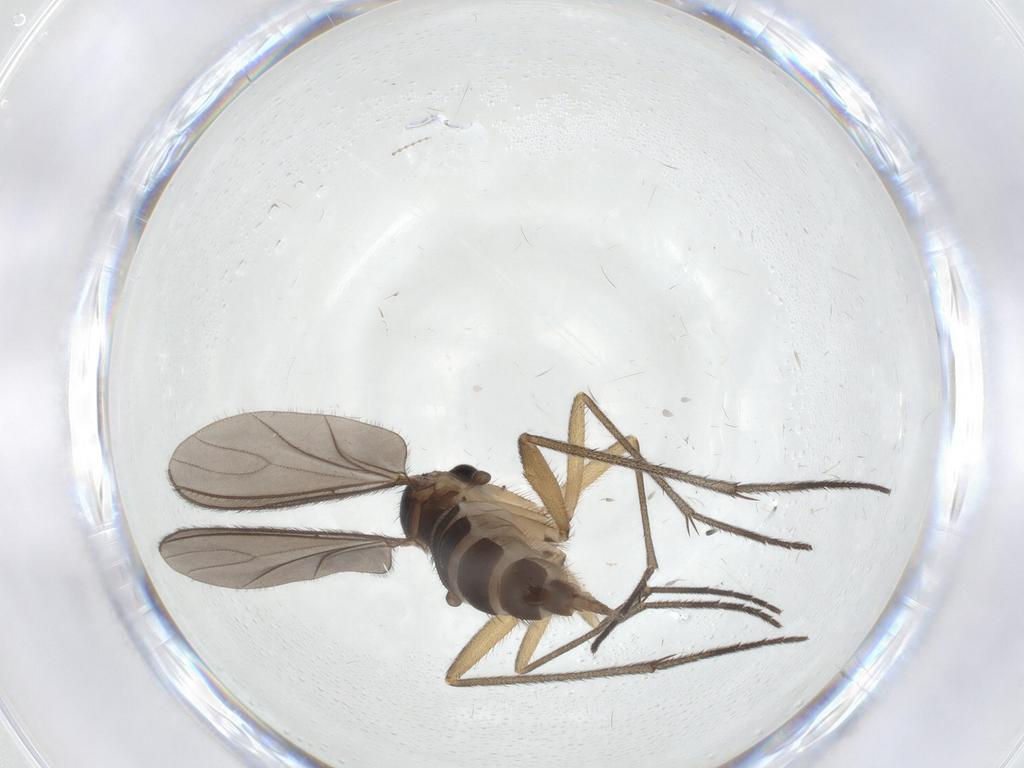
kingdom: Animalia
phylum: Arthropoda
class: Insecta
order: Diptera
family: Sciaridae
